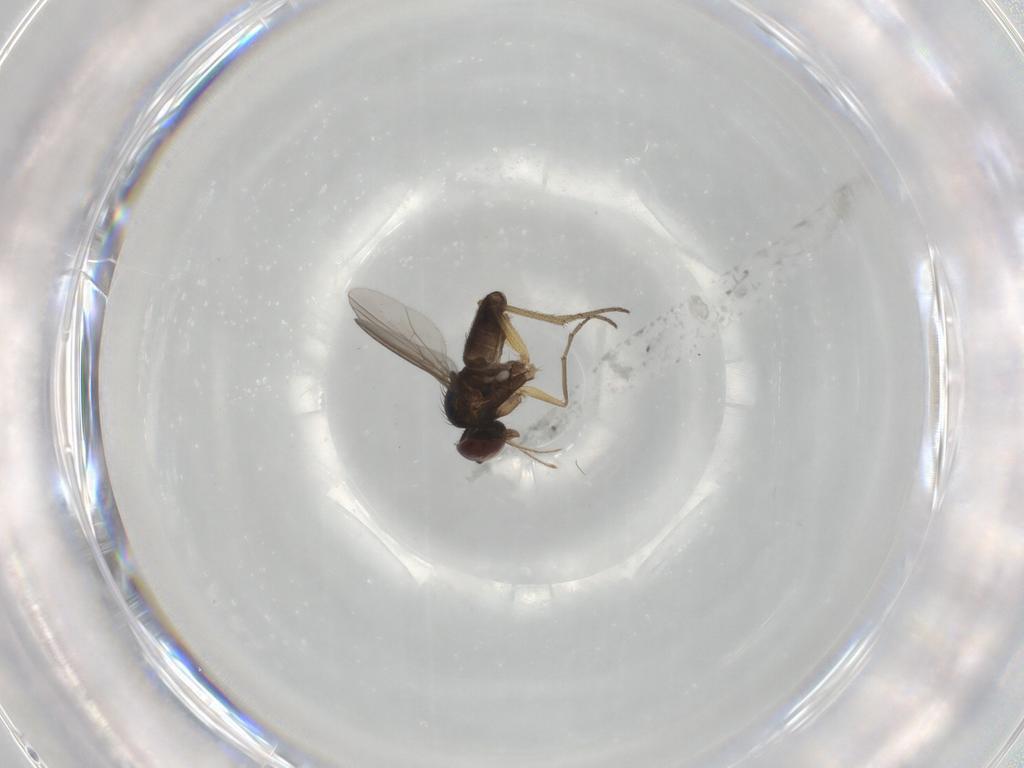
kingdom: Animalia
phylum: Arthropoda
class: Insecta
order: Diptera
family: Dolichopodidae
